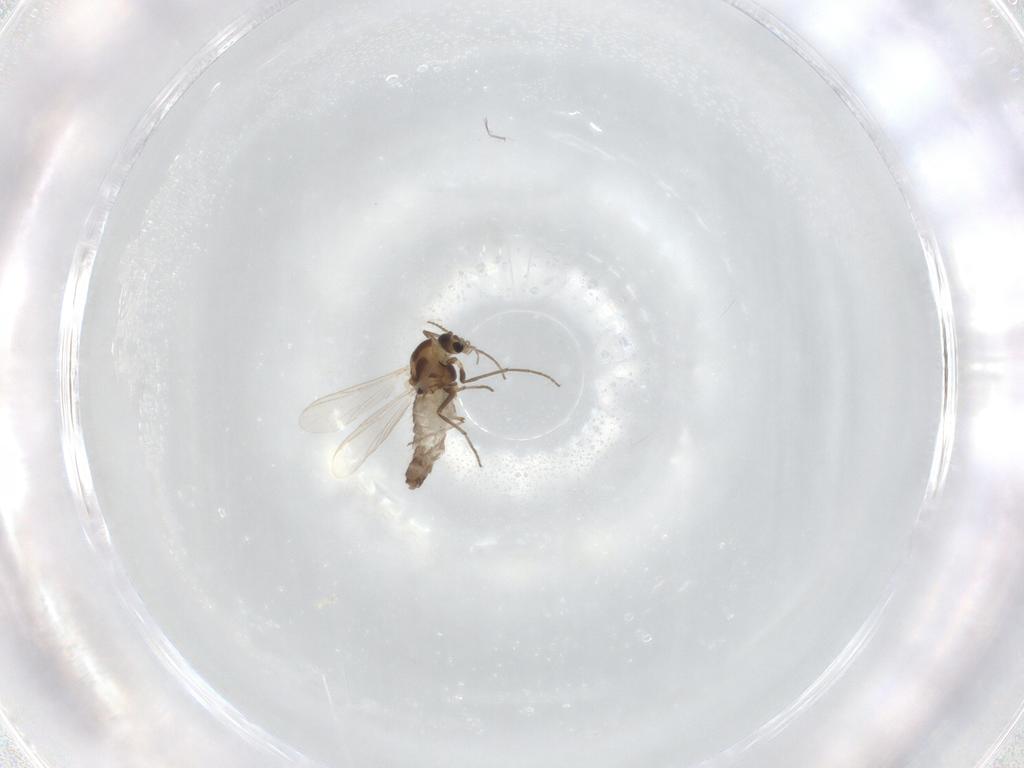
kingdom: Animalia
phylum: Arthropoda
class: Insecta
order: Diptera
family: Chironomidae
